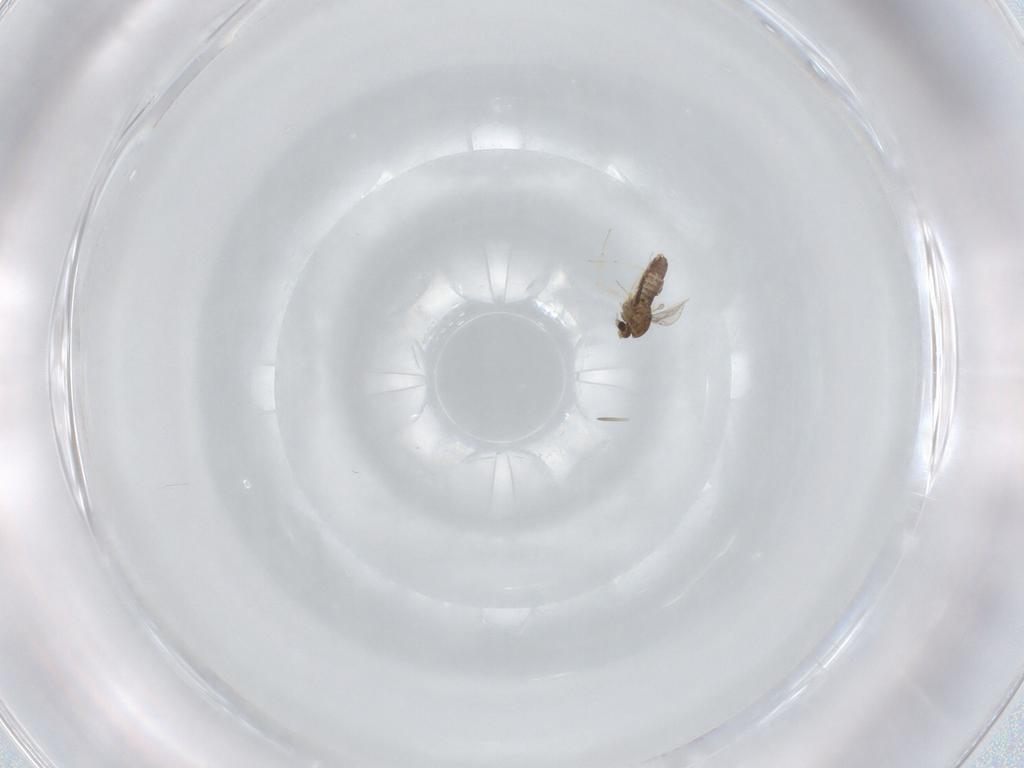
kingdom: Animalia
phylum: Arthropoda
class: Insecta
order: Diptera
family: Chironomidae
